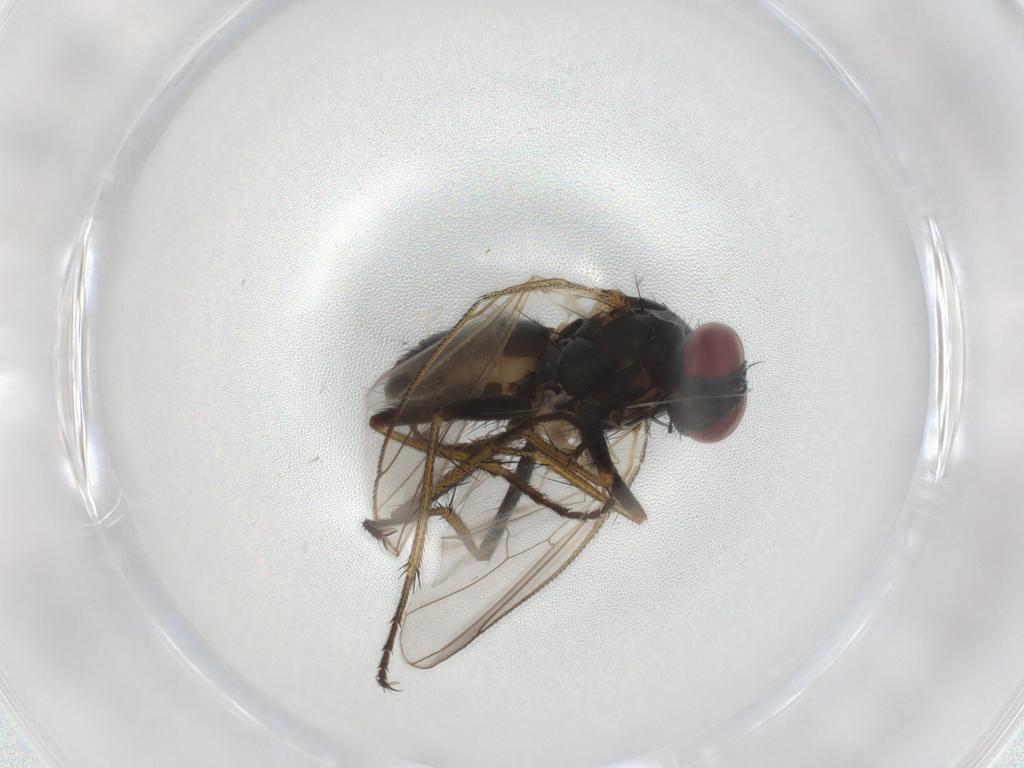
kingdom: Animalia
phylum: Arthropoda
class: Insecta
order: Diptera
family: Ceratopogonidae
